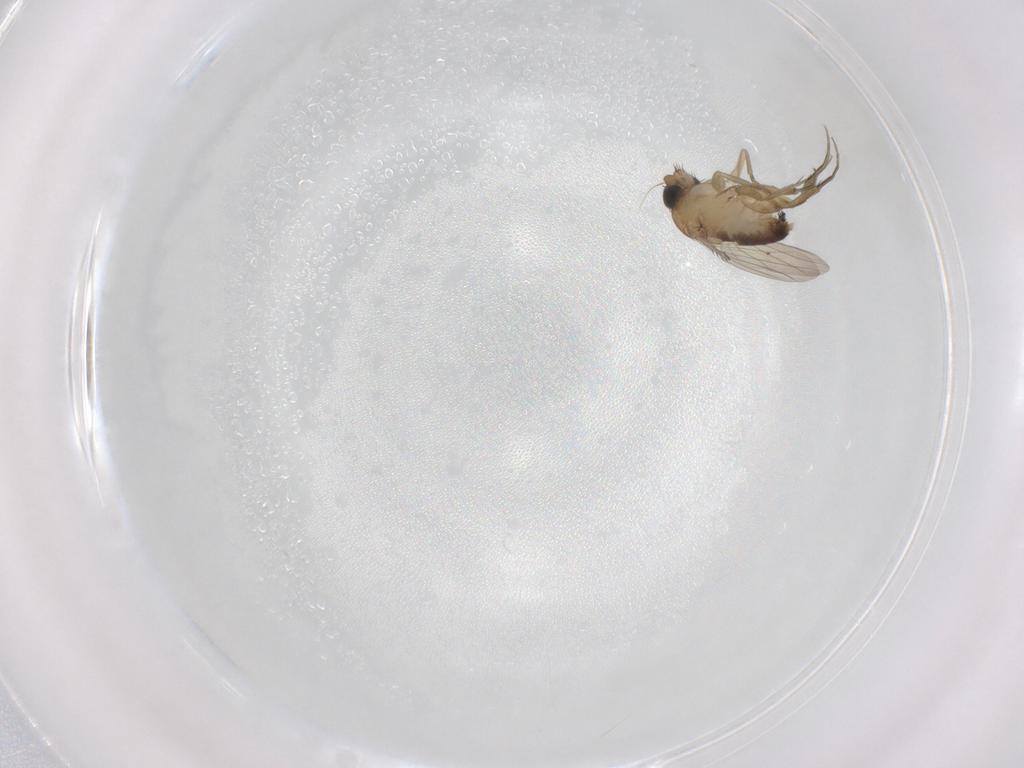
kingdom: Animalia
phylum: Arthropoda
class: Insecta
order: Diptera
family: Phoridae
